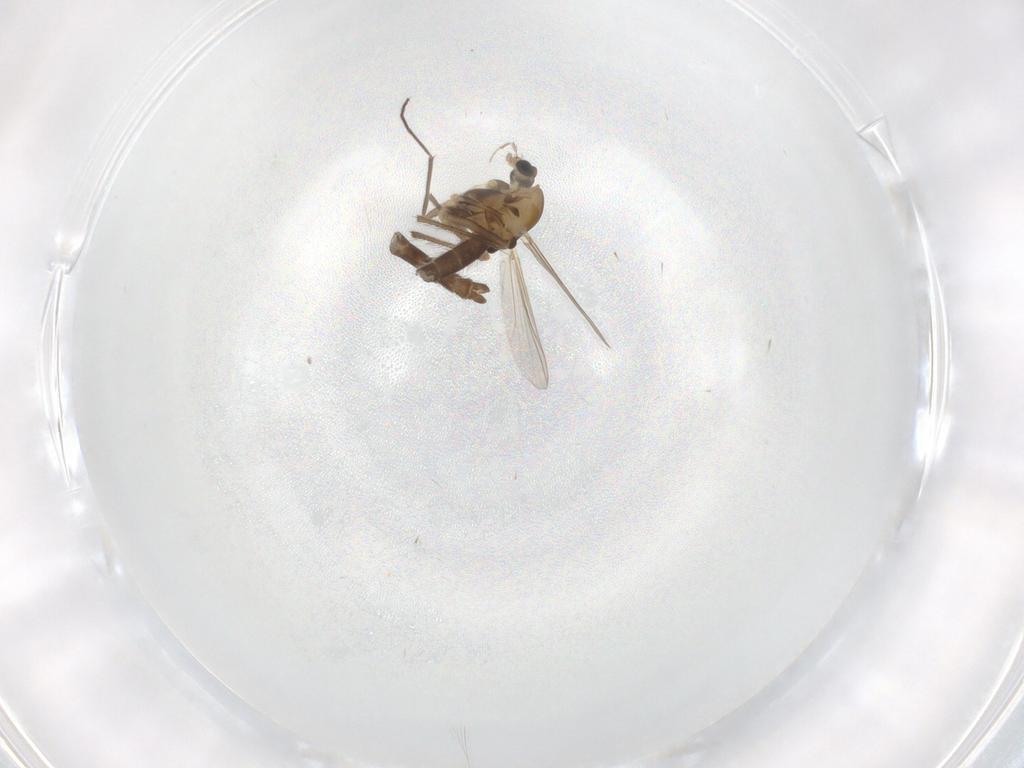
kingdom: Animalia
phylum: Arthropoda
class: Insecta
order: Diptera
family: Chironomidae
